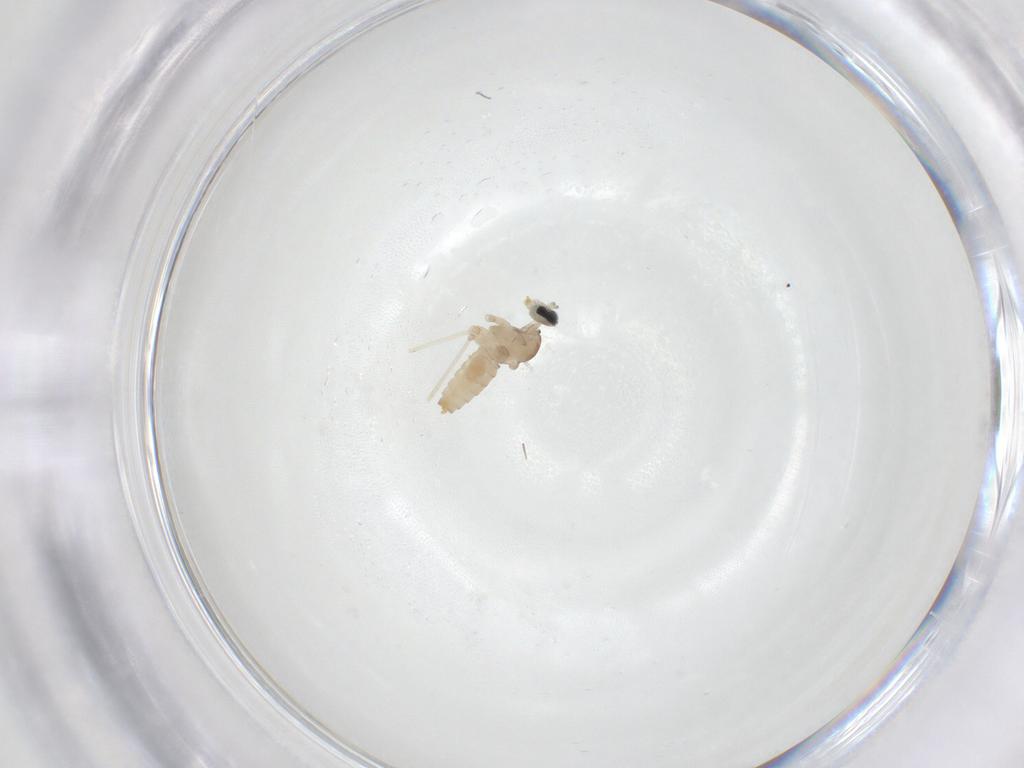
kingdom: Animalia
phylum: Arthropoda
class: Insecta
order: Diptera
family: Cecidomyiidae
